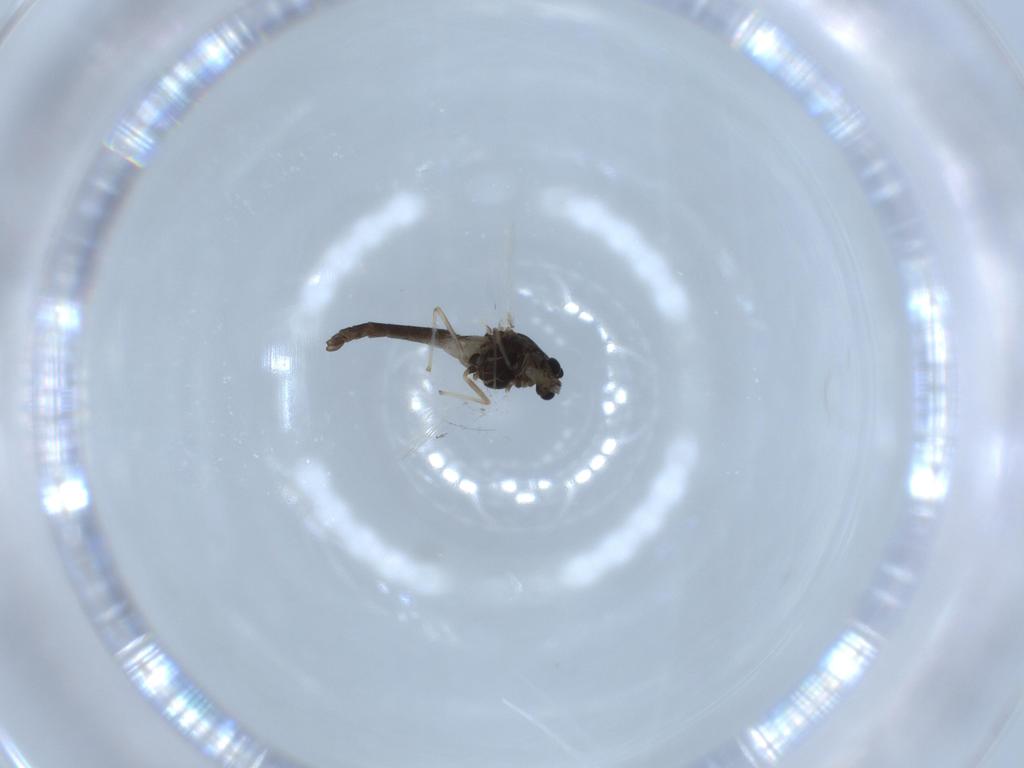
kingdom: Animalia
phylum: Arthropoda
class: Insecta
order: Diptera
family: Chironomidae
